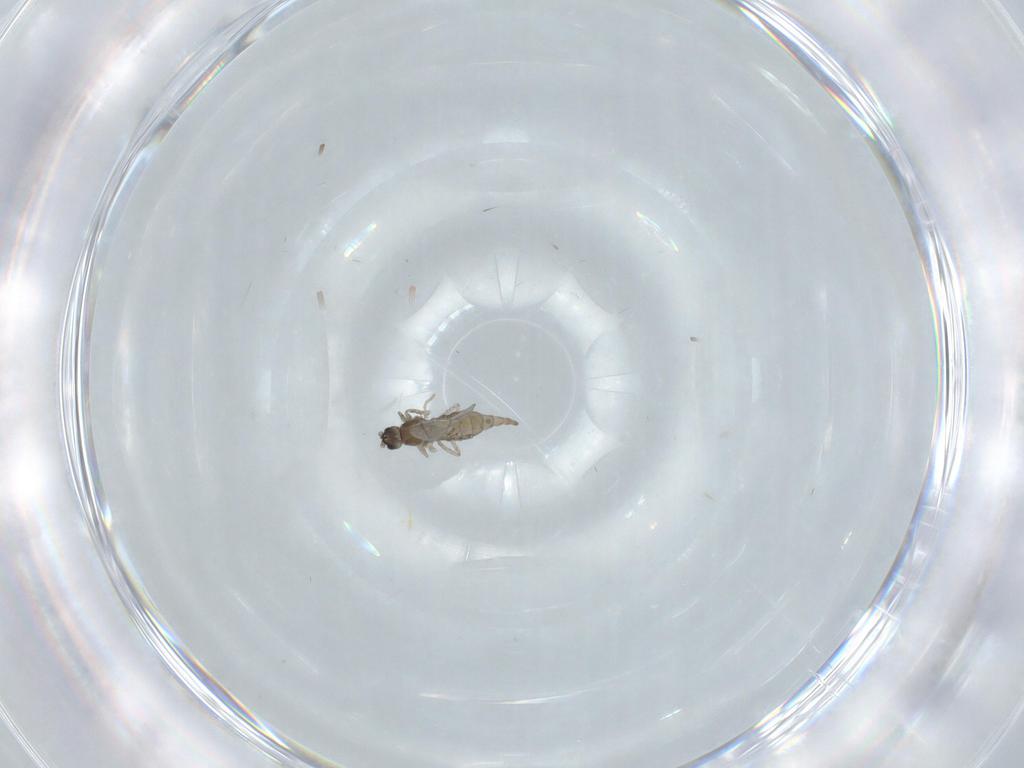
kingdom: Animalia
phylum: Arthropoda
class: Insecta
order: Diptera
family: Cecidomyiidae
